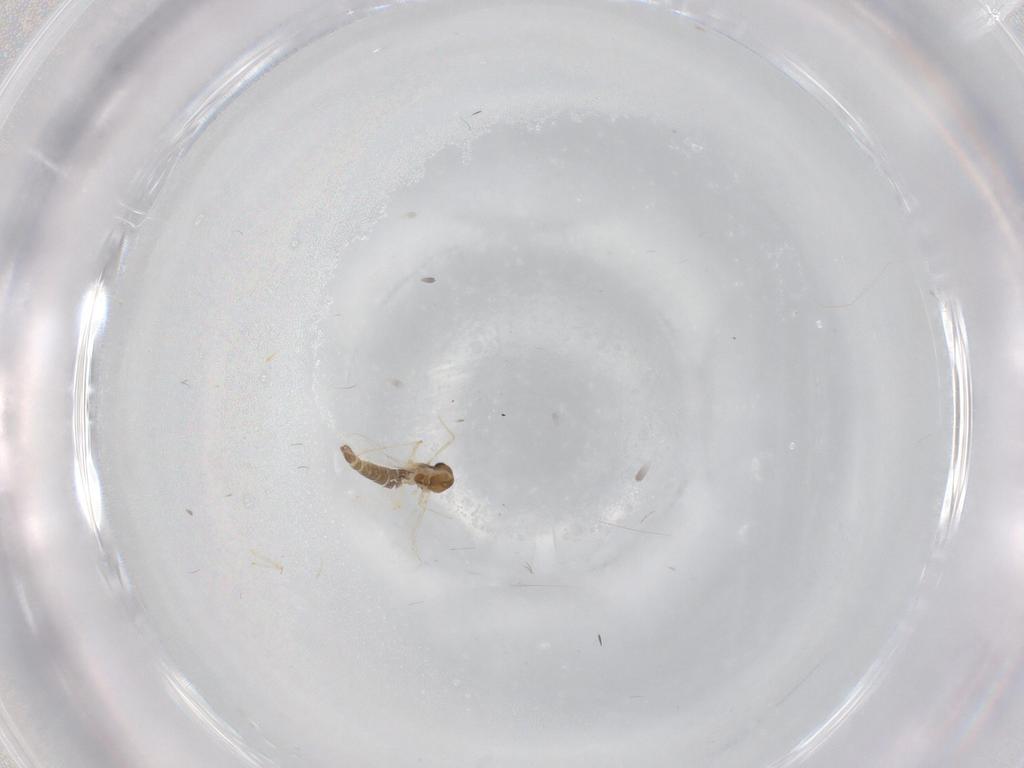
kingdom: Animalia
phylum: Arthropoda
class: Insecta
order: Diptera
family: Chironomidae
